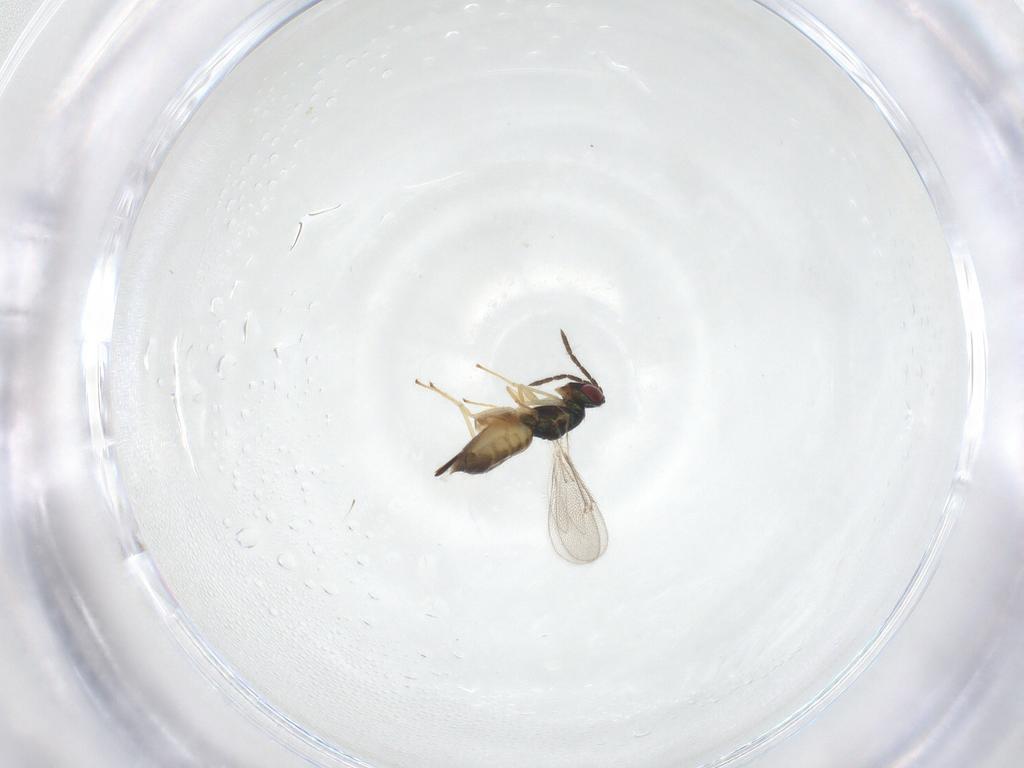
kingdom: Animalia
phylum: Arthropoda
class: Insecta
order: Hymenoptera
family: Eulophidae
